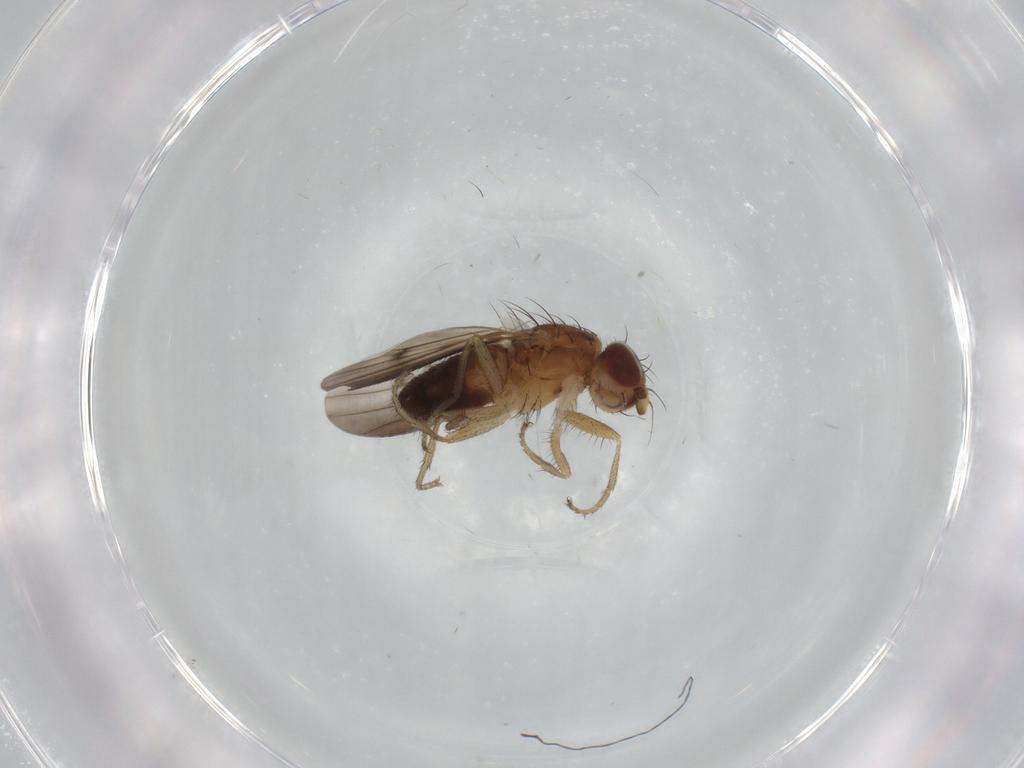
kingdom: Animalia
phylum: Arthropoda
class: Insecta
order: Diptera
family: Heleomyzidae
